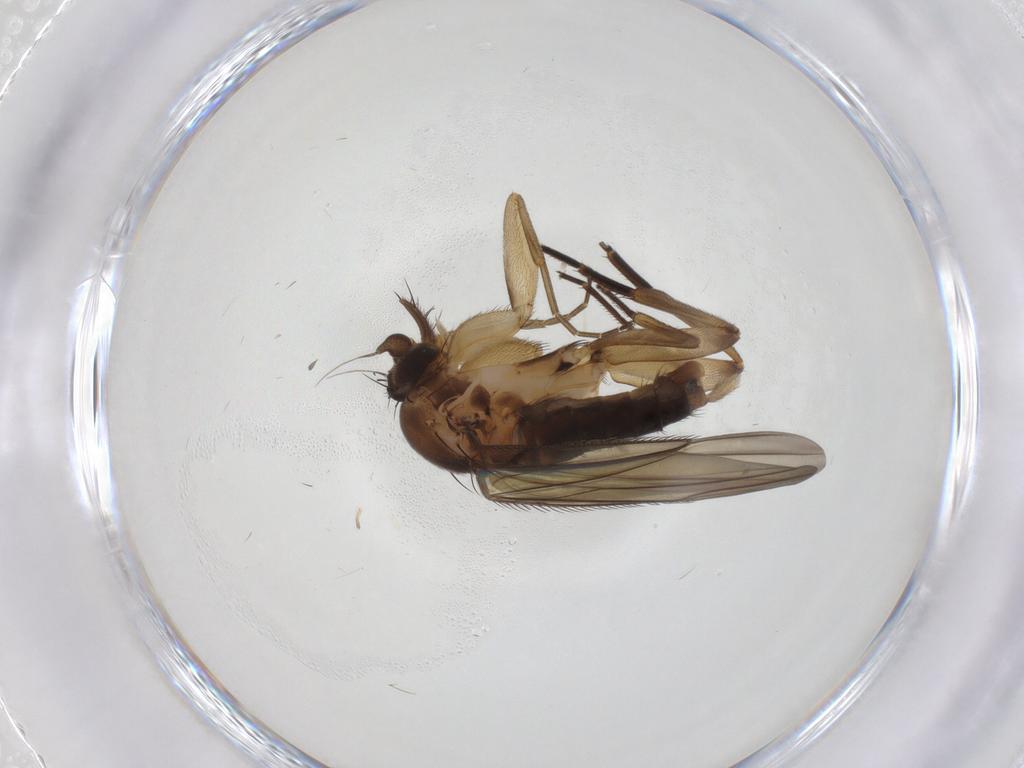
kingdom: Animalia
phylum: Arthropoda
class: Insecta
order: Diptera
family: Phoridae
